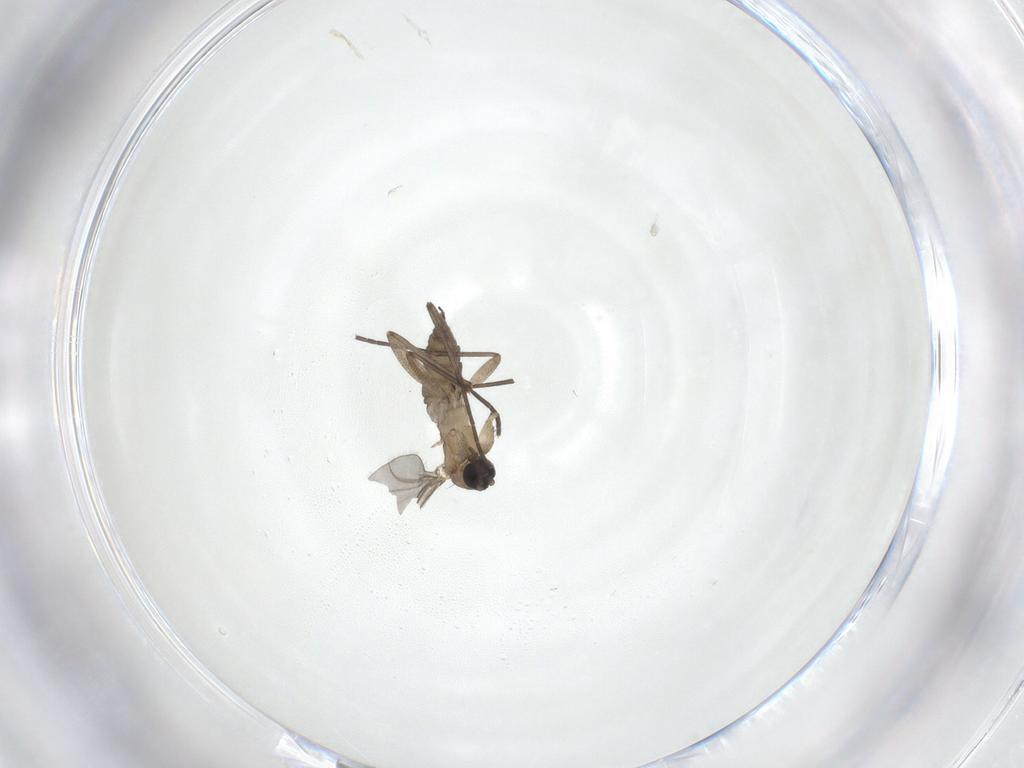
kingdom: Animalia
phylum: Arthropoda
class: Insecta
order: Diptera
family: Sciaridae
